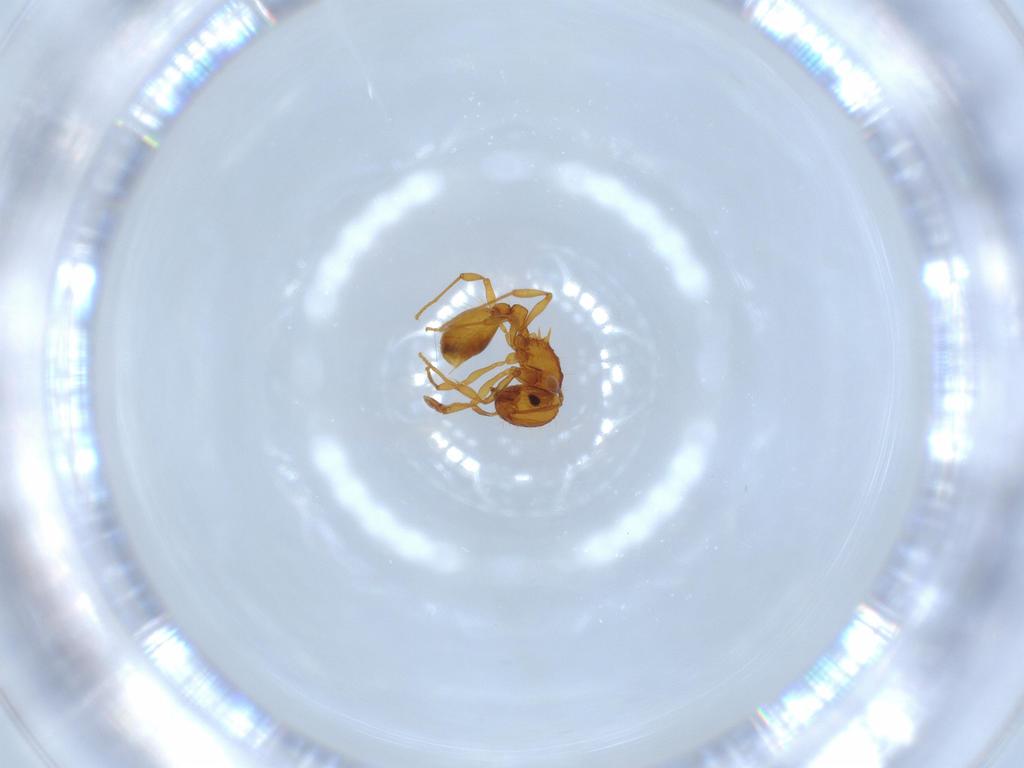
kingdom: Animalia
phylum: Arthropoda
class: Insecta
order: Hymenoptera
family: Formicidae
